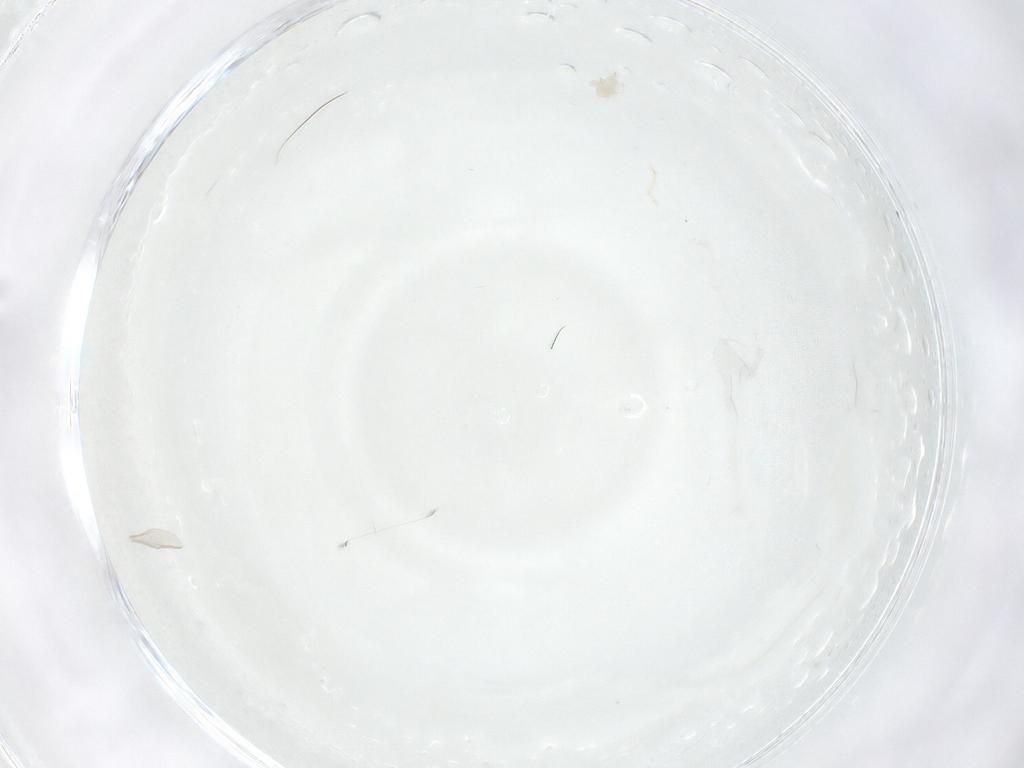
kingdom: Animalia
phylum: Arthropoda
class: Arachnida
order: Mesostigmata
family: Melicharidae
